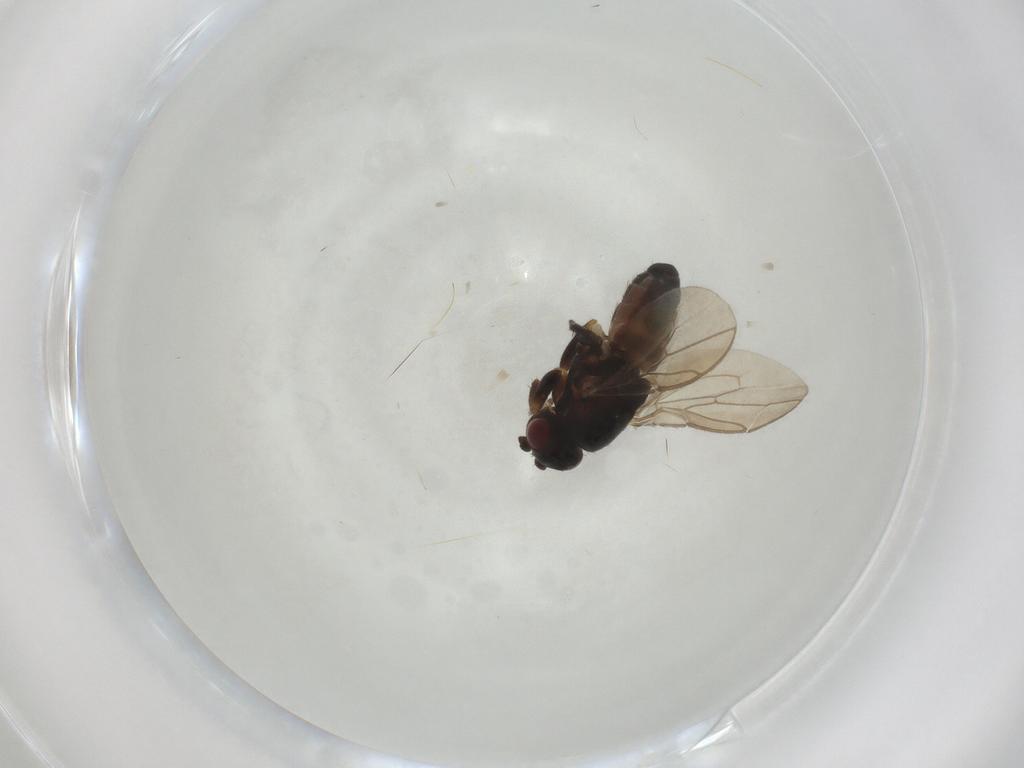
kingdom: Animalia
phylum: Arthropoda
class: Insecta
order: Diptera
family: Sphaeroceridae
